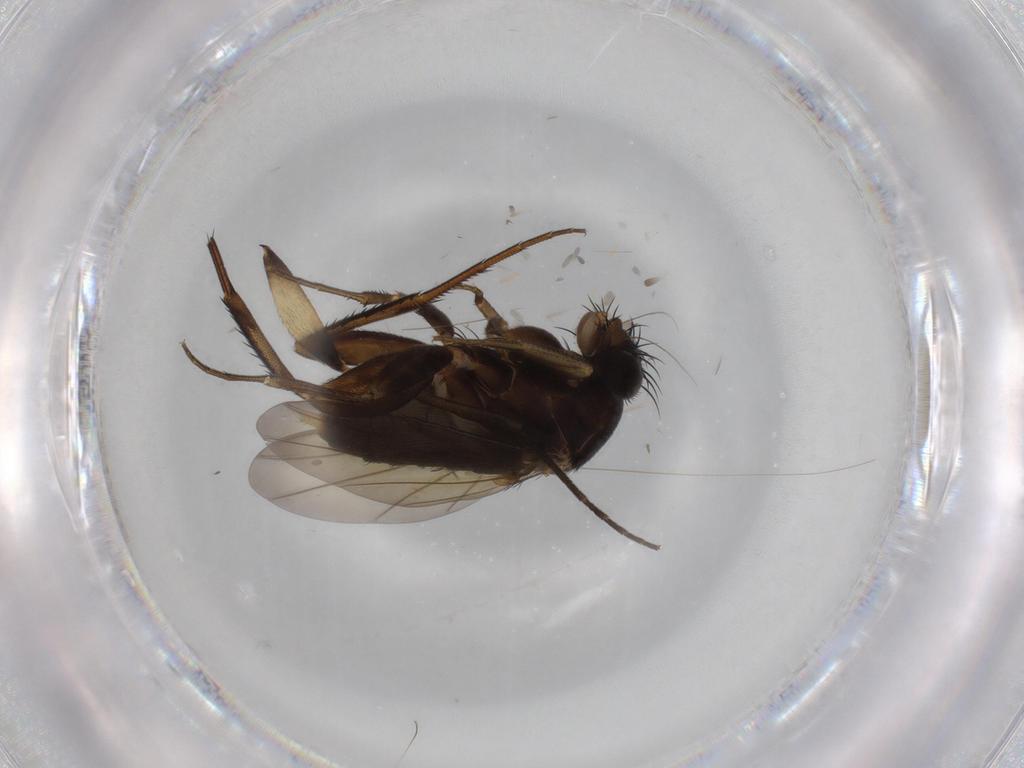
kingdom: Animalia
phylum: Arthropoda
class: Insecta
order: Diptera
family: Phoridae
